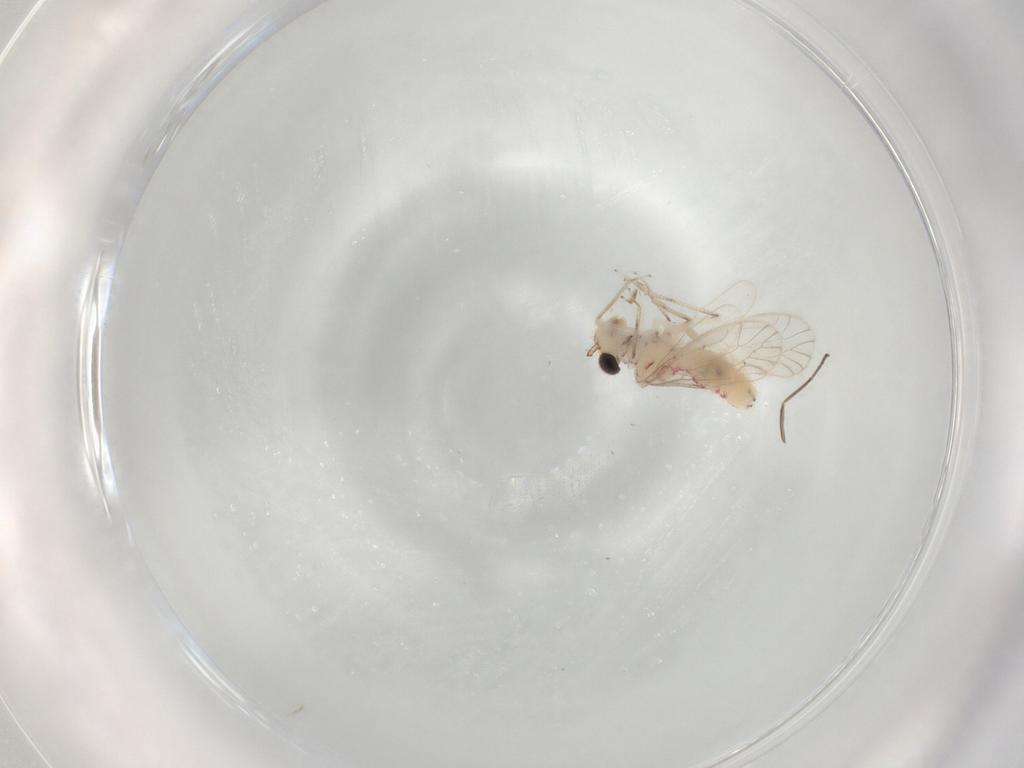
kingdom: Animalia
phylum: Arthropoda
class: Insecta
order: Psocodea
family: Caeciliusidae
